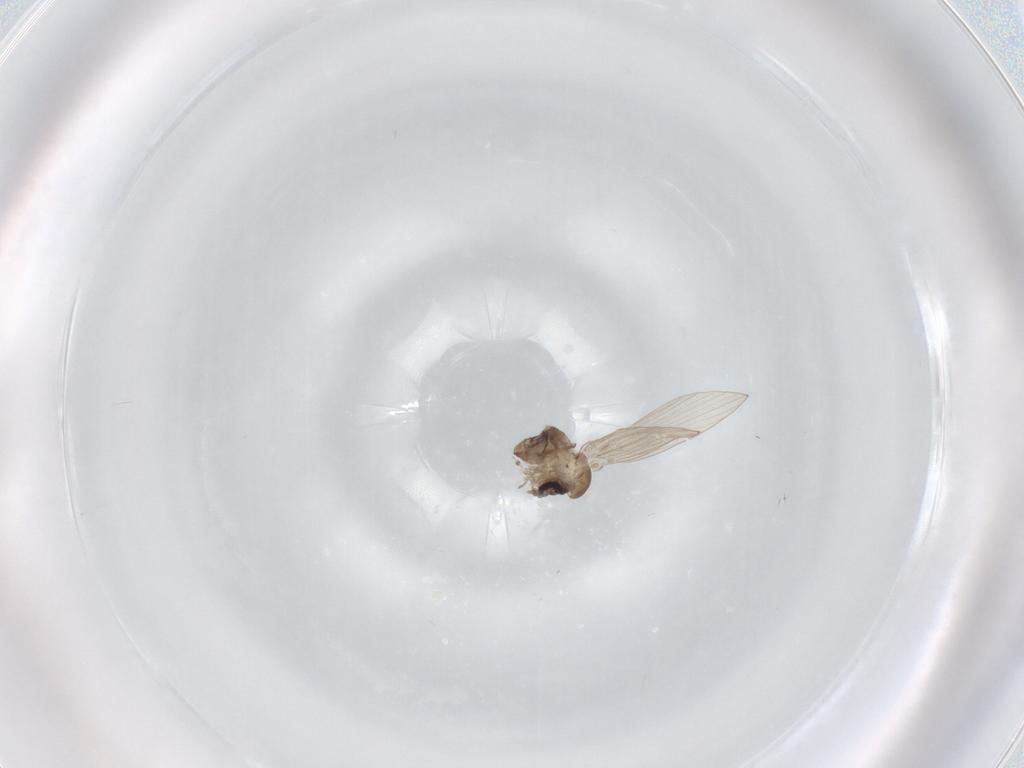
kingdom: Animalia
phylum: Arthropoda
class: Insecta
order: Diptera
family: Psychodidae
